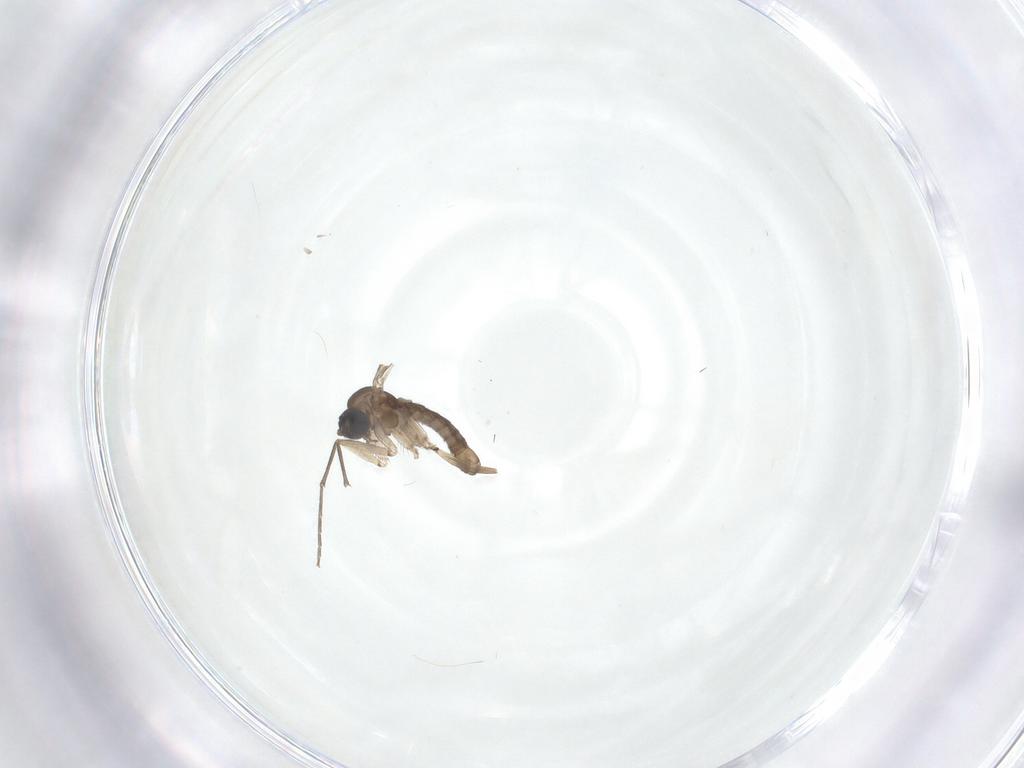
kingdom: Animalia
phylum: Arthropoda
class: Insecta
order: Diptera
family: Sciaridae
